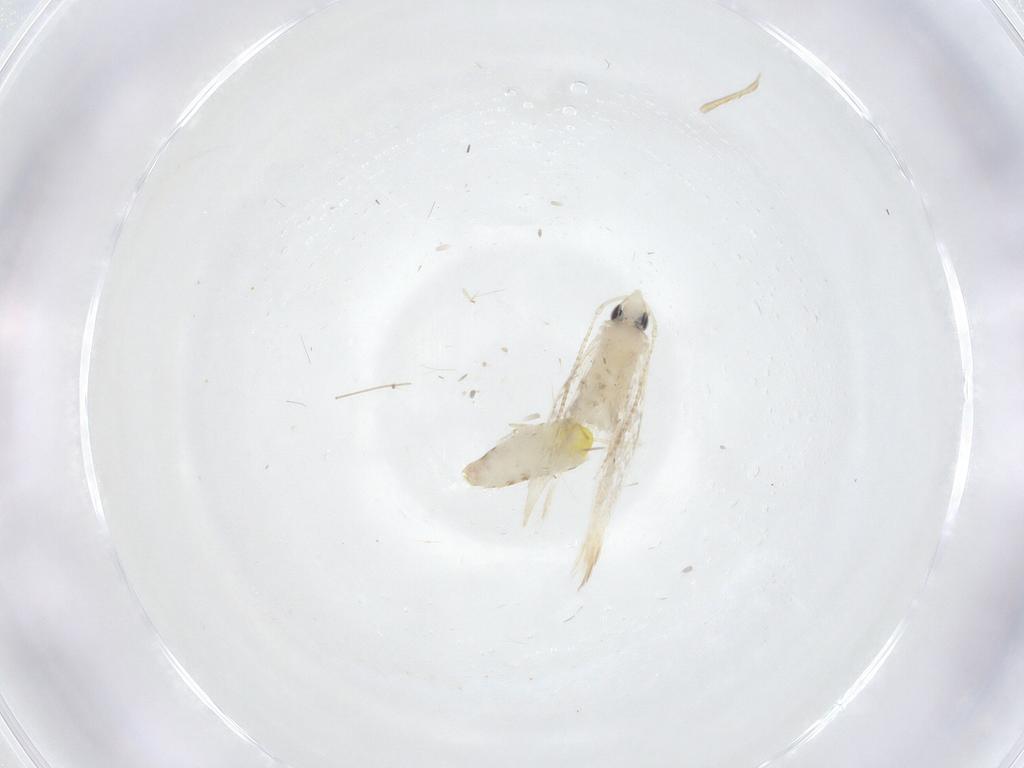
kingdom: Animalia
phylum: Arthropoda
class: Insecta
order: Lepidoptera
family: Tineidae
